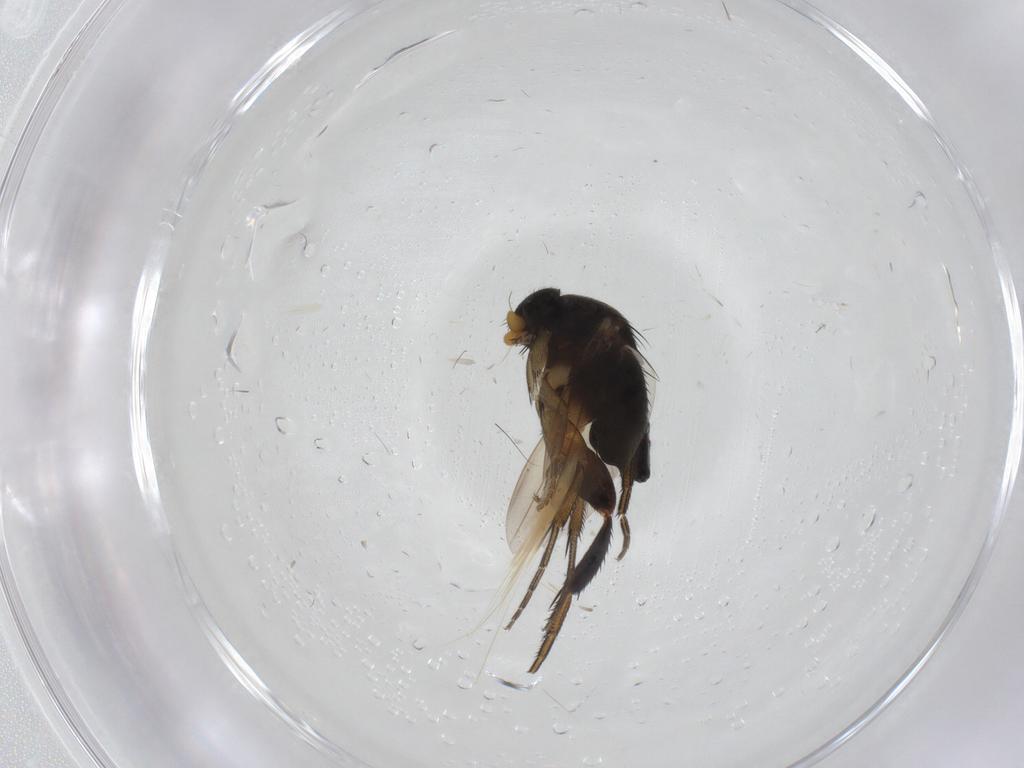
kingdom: Animalia
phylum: Arthropoda
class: Insecta
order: Diptera
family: Phoridae
